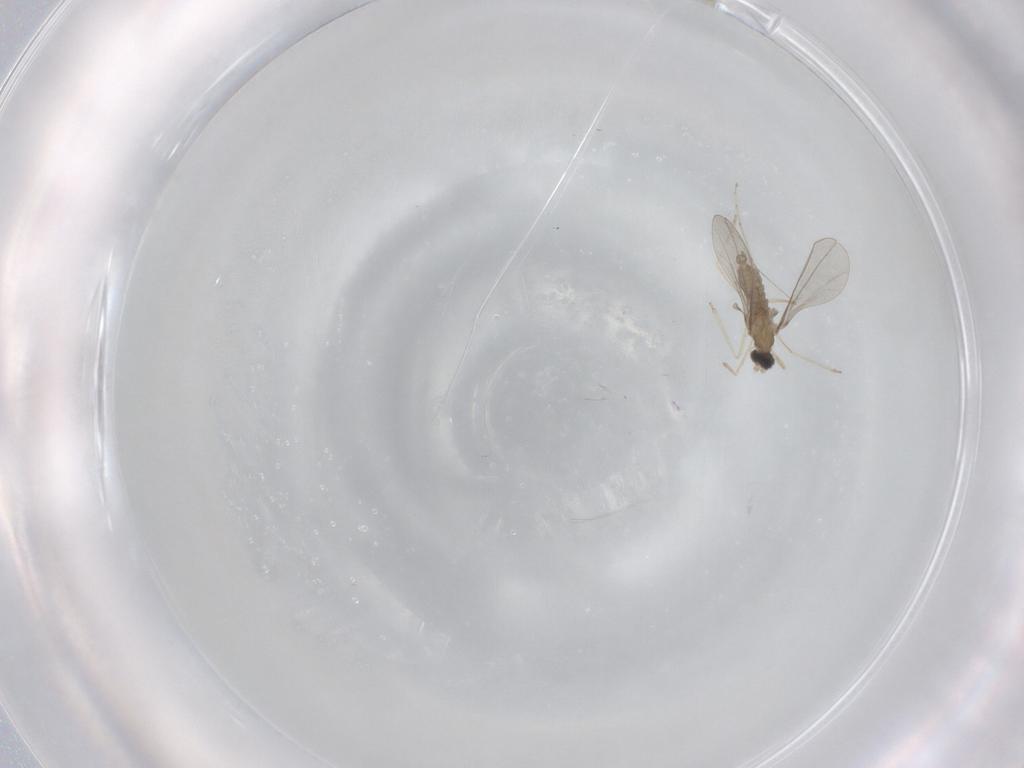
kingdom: Animalia
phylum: Arthropoda
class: Insecta
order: Diptera
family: Cecidomyiidae
